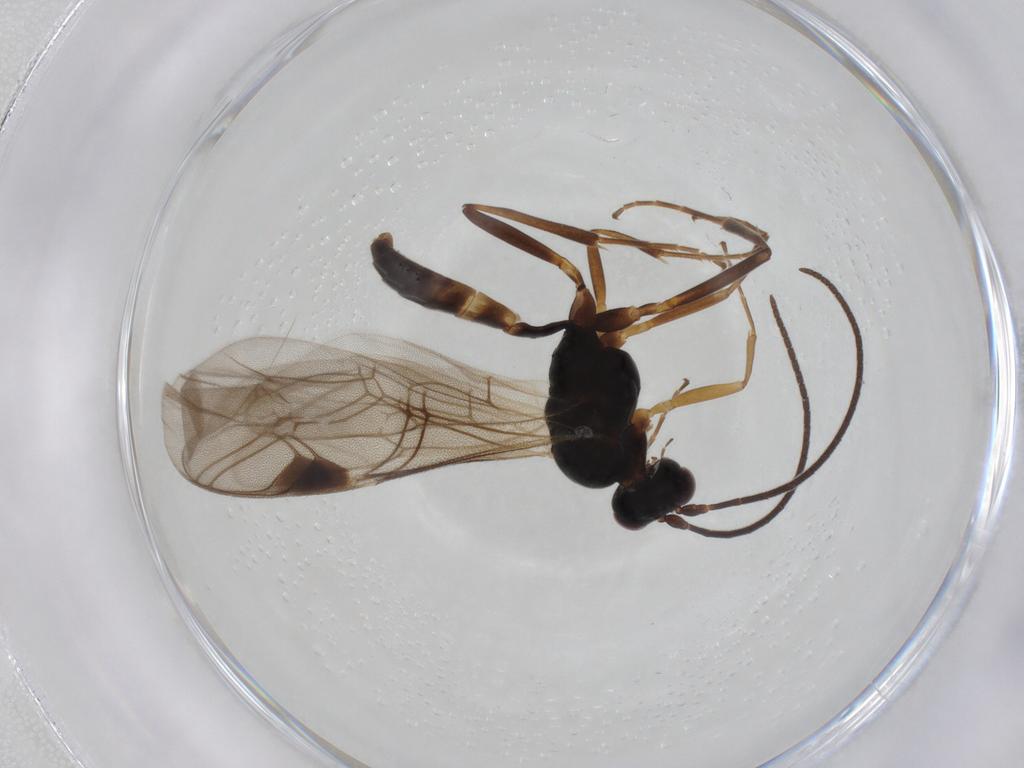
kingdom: Animalia
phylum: Arthropoda
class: Insecta
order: Hymenoptera
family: Ichneumonidae
